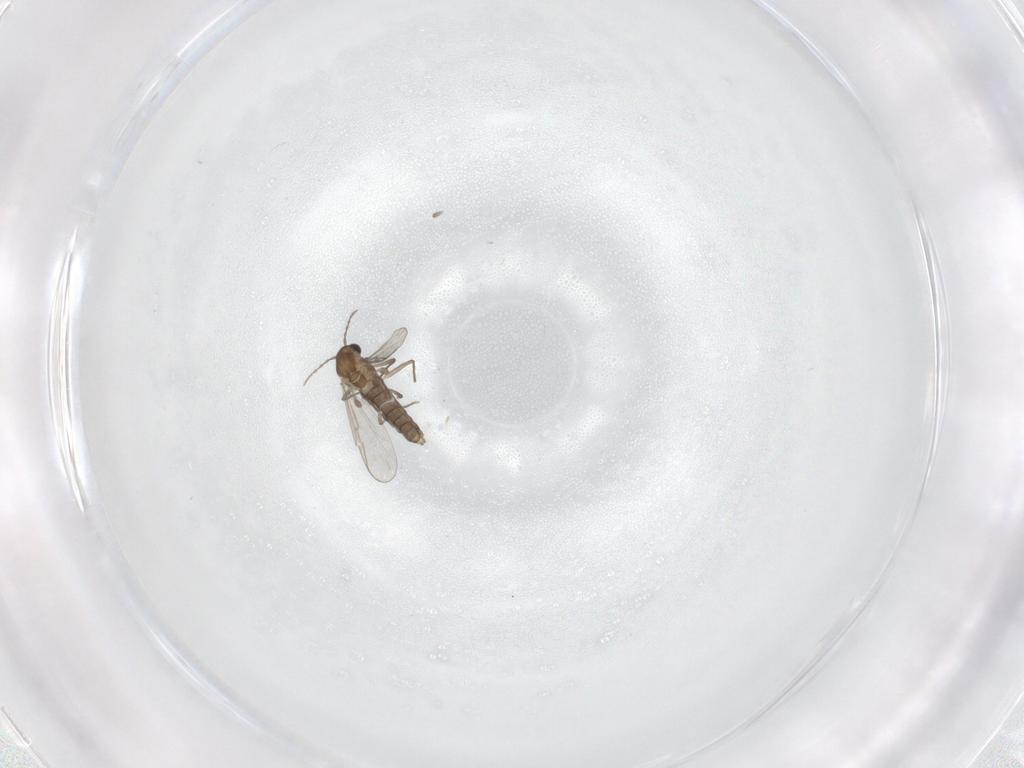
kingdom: Animalia
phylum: Arthropoda
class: Insecta
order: Diptera
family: Chironomidae
